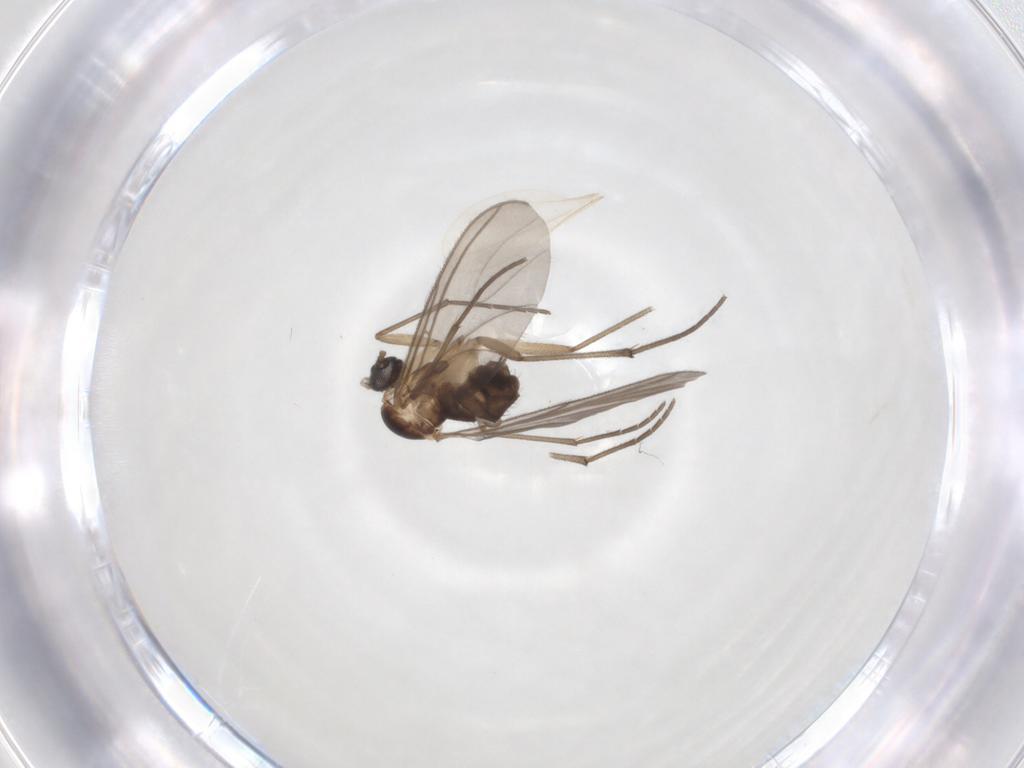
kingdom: Animalia
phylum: Arthropoda
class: Insecta
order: Diptera
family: Sciaridae
